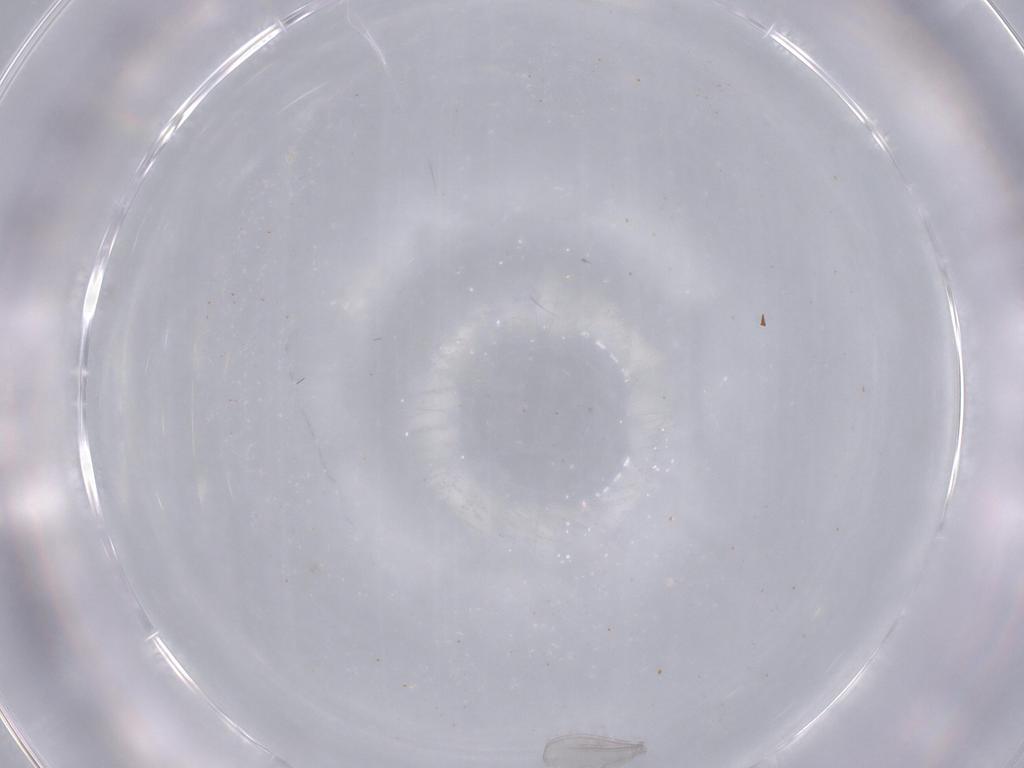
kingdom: Animalia
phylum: Arthropoda
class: Insecta
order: Diptera
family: Cecidomyiidae
